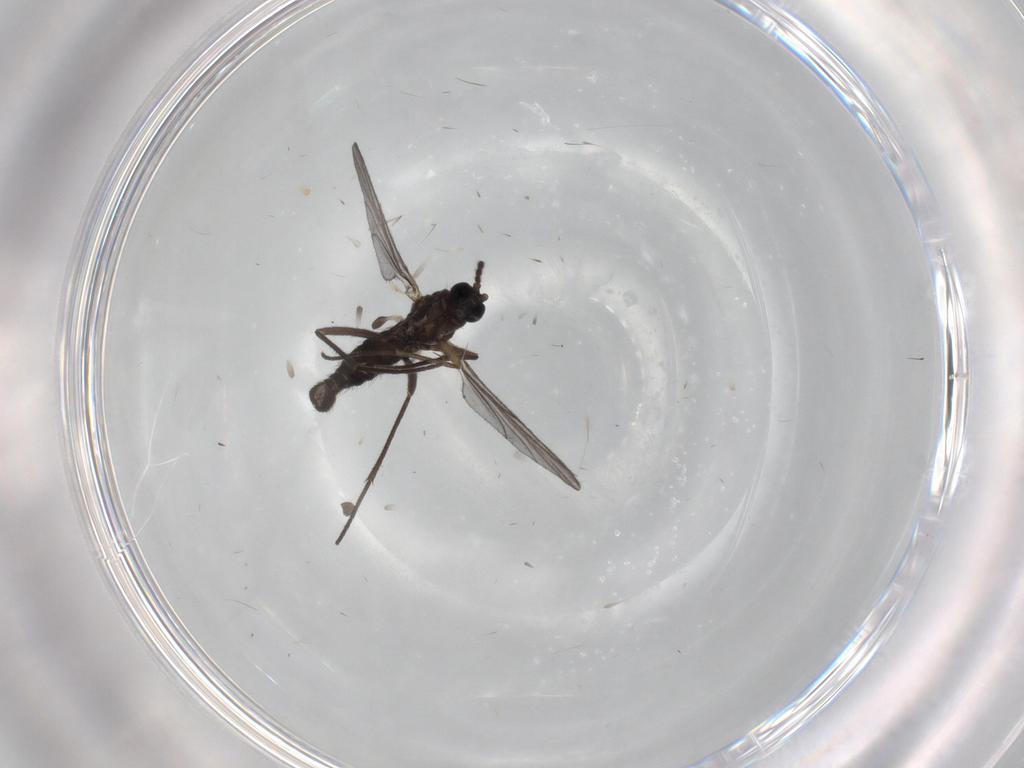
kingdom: Animalia
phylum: Arthropoda
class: Insecta
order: Diptera
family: Sciaridae
